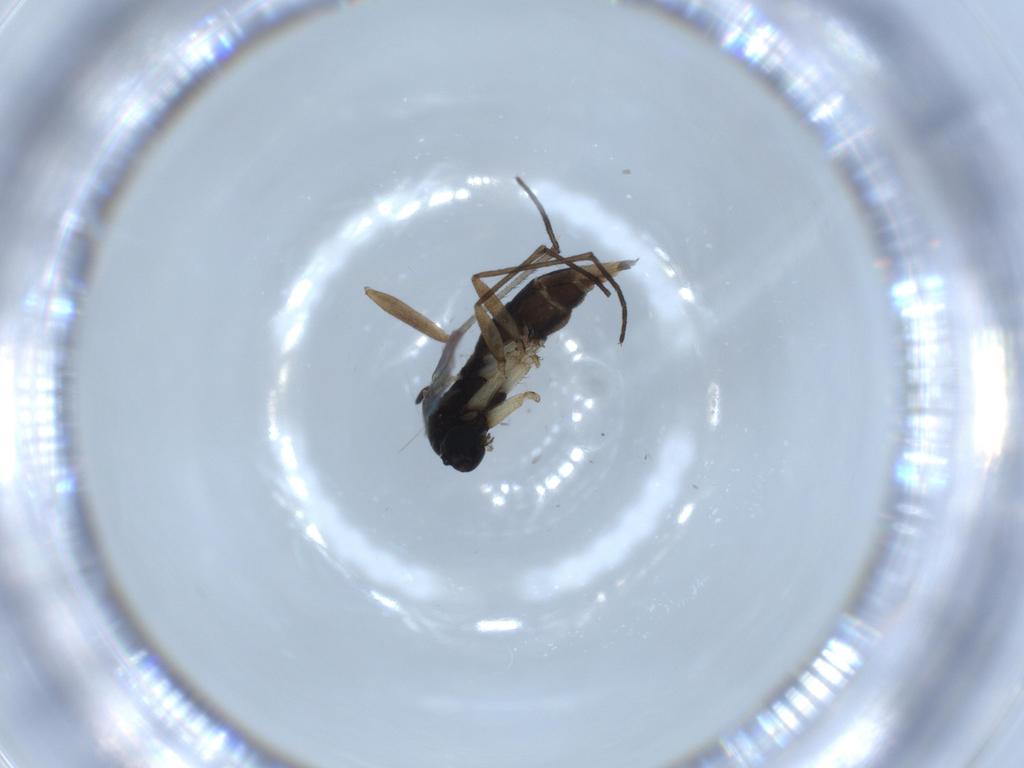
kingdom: Animalia
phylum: Arthropoda
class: Insecta
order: Diptera
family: Sciaridae
